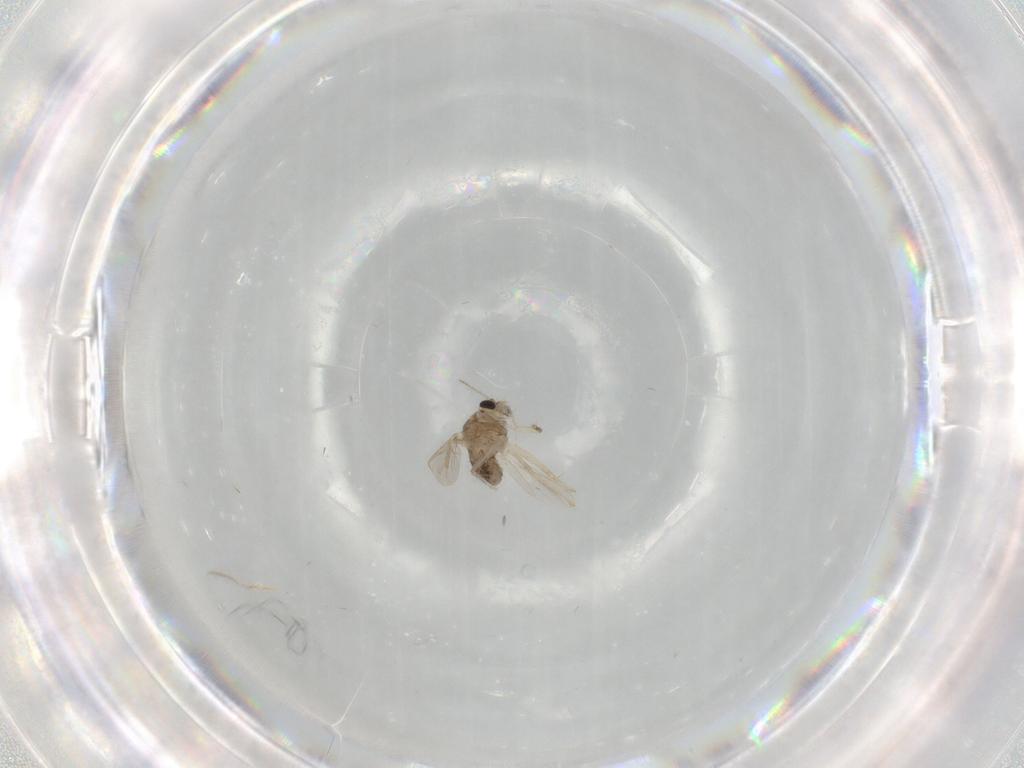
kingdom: Animalia
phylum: Arthropoda
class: Insecta
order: Diptera
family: Chironomidae
